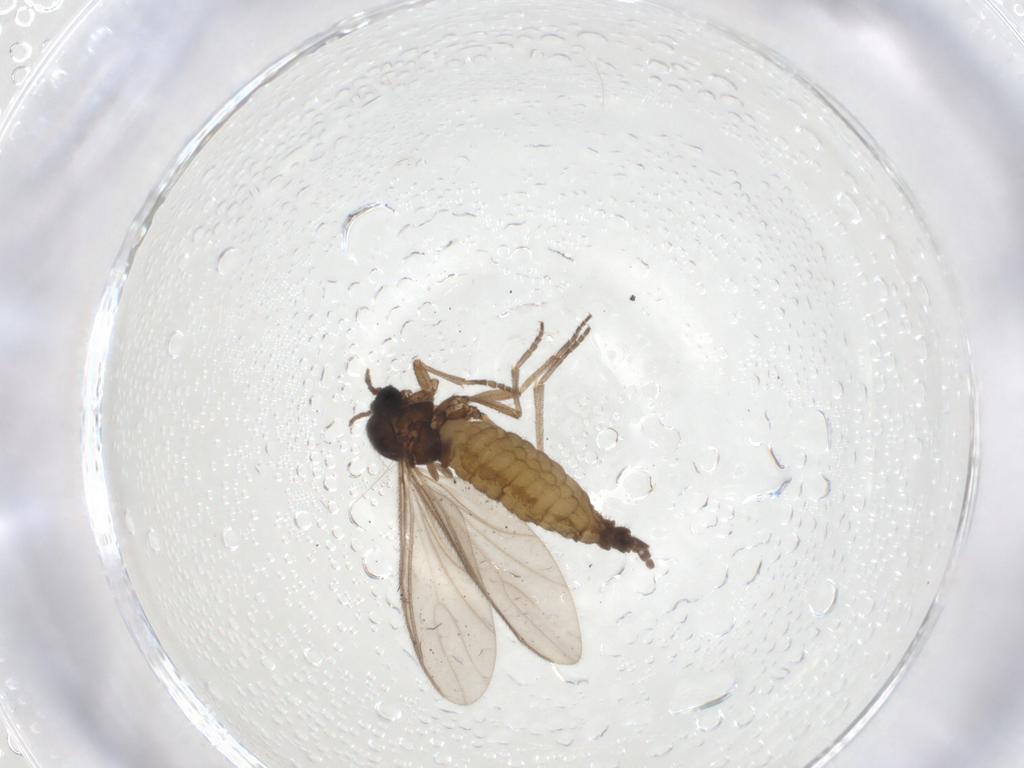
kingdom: Animalia
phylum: Arthropoda
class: Insecta
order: Diptera
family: Sciaridae
